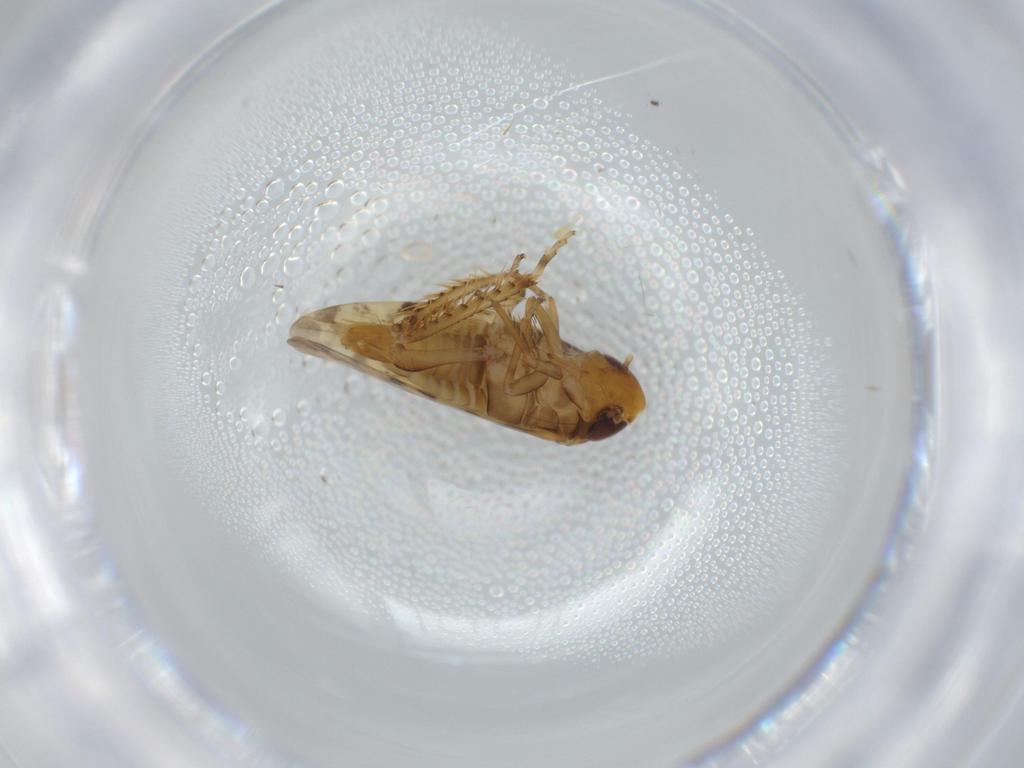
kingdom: Animalia
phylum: Arthropoda
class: Insecta
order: Hemiptera
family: Cicadellidae
